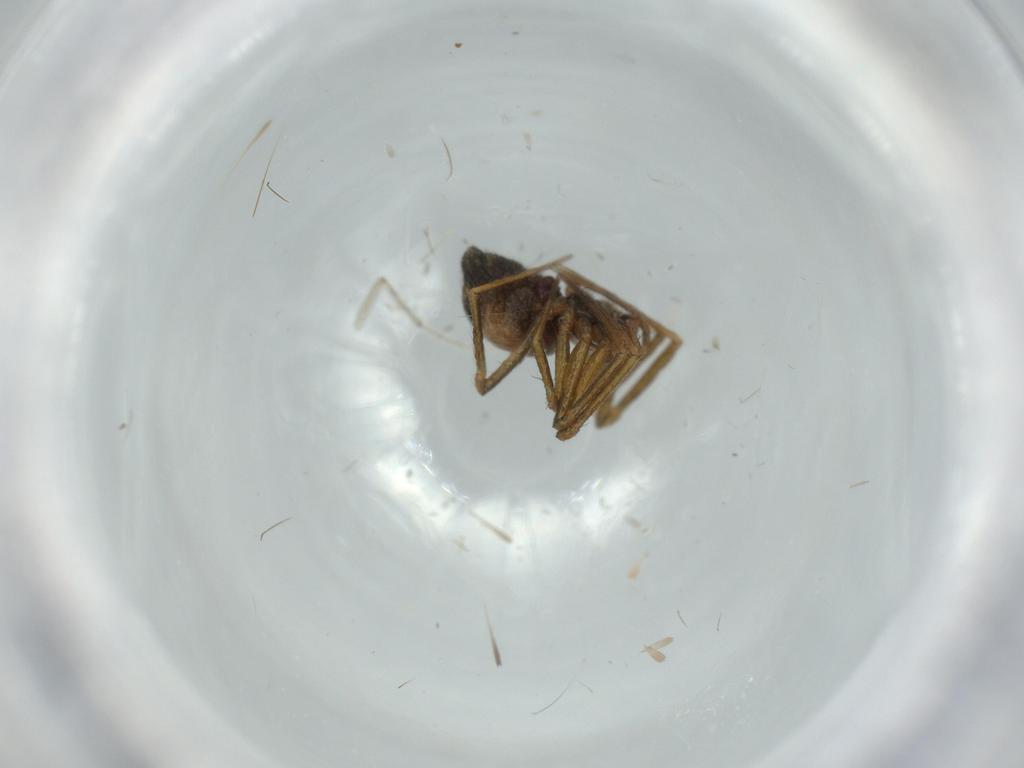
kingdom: Animalia
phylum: Arthropoda
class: Arachnida
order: Araneae
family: Linyphiidae
